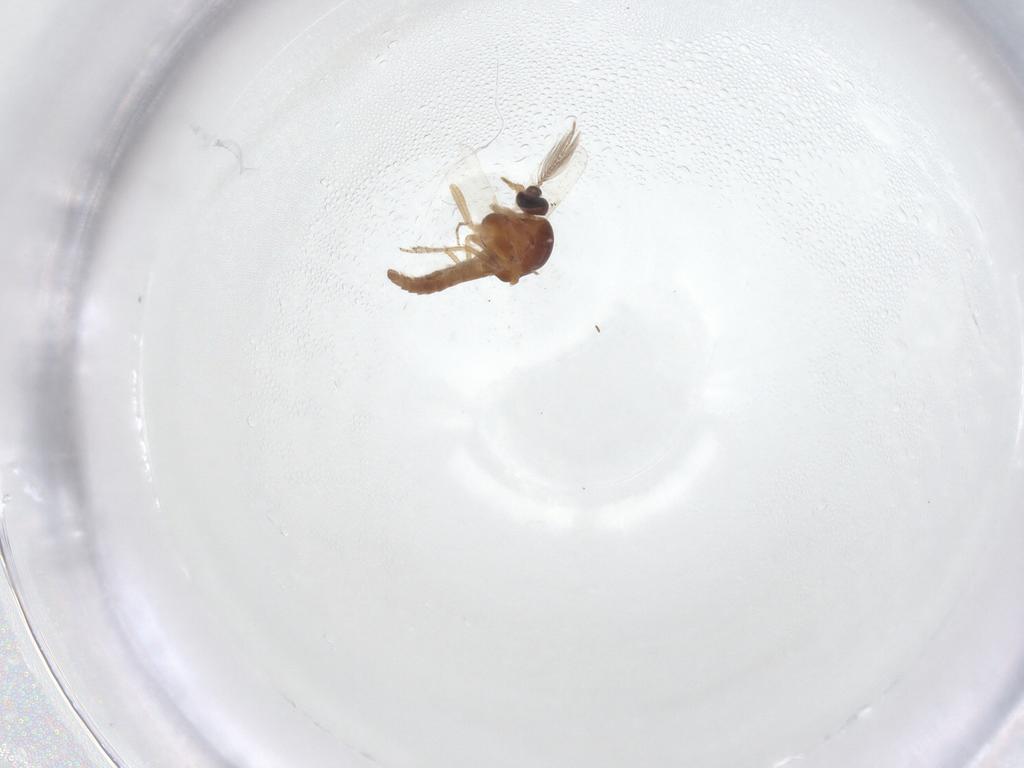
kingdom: Animalia
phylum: Arthropoda
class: Insecta
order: Diptera
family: Ceratopogonidae
